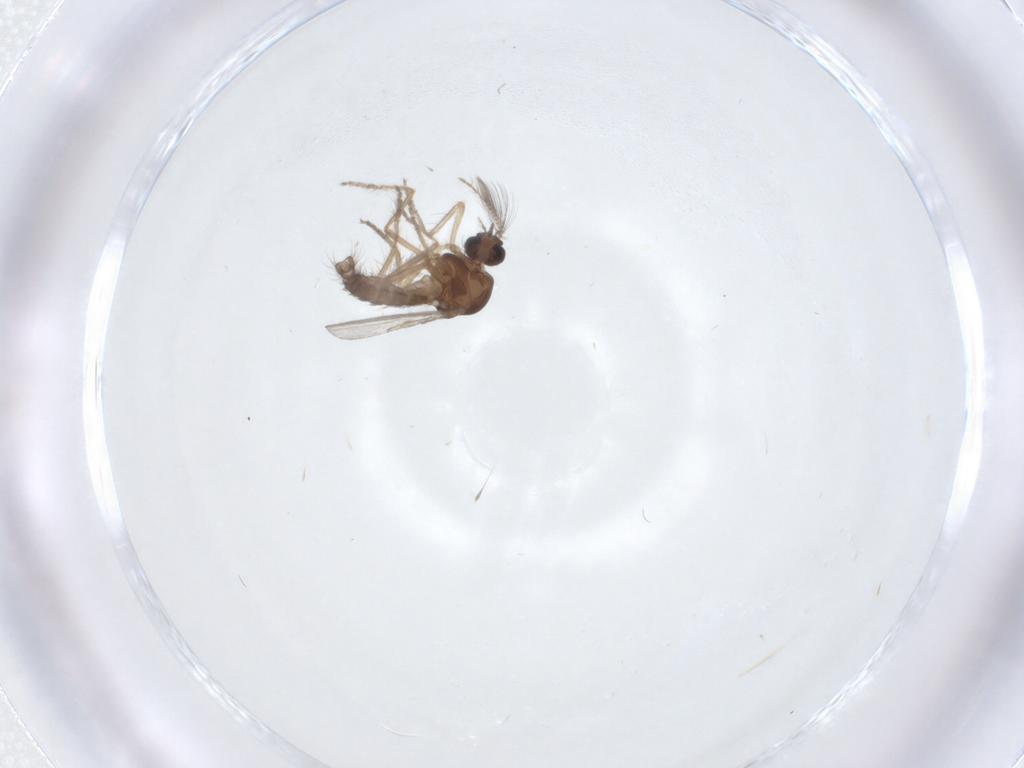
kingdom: Animalia
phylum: Arthropoda
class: Insecta
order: Diptera
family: Ceratopogonidae
